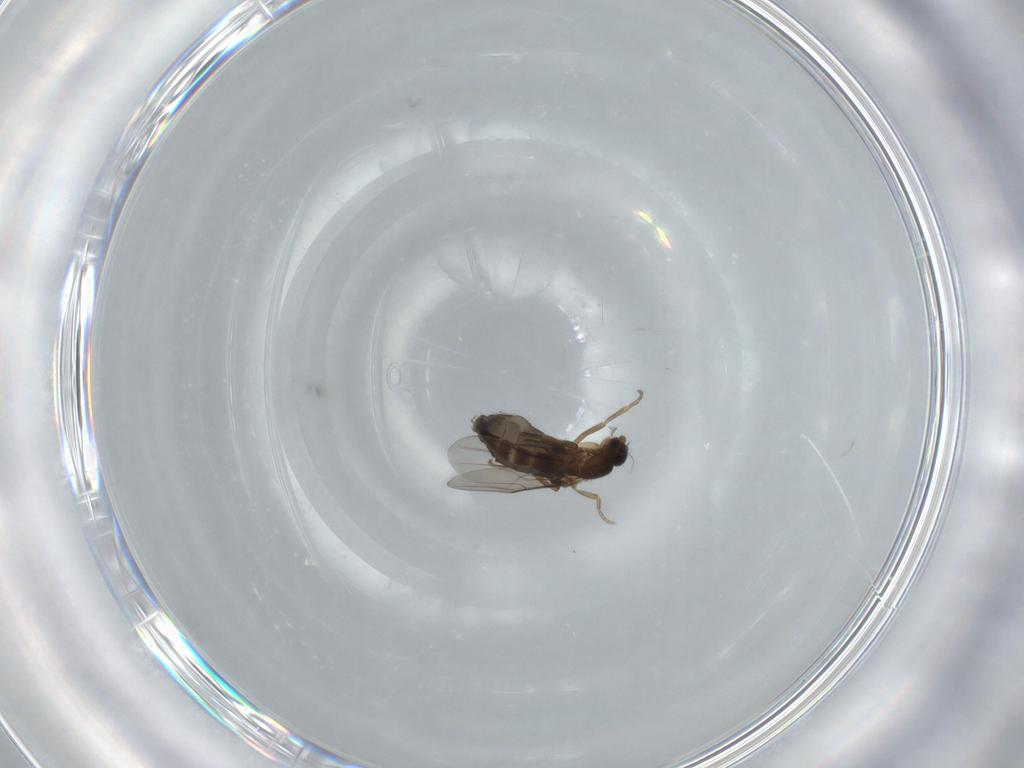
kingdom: Animalia
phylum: Arthropoda
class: Insecta
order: Diptera
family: Phoridae
